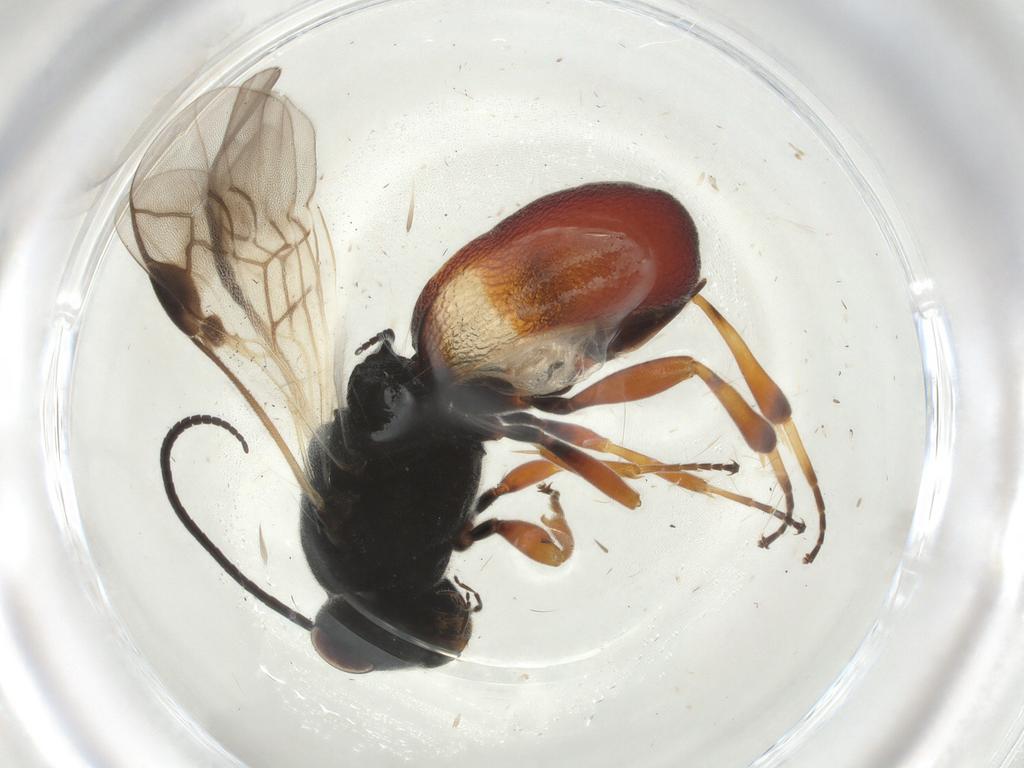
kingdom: Animalia
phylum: Arthropoda
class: Insecta
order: Hymenoptera
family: Braconidae
